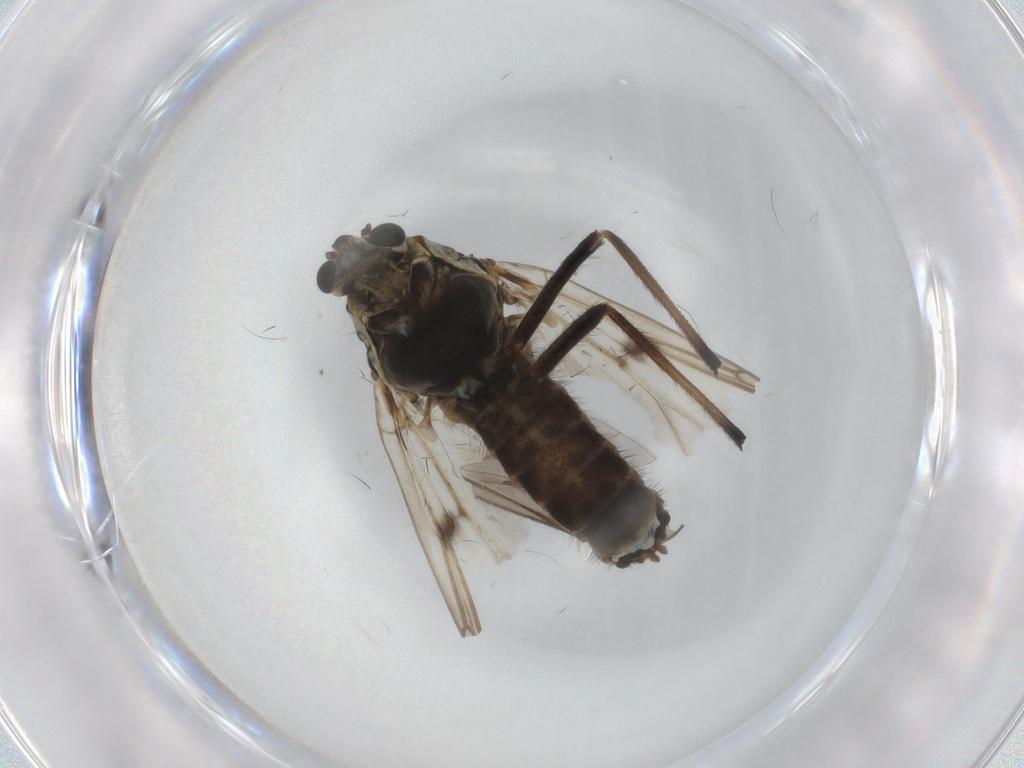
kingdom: Animalia
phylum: Arthropoda
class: Insecta
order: Diptera
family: Chironomidae
